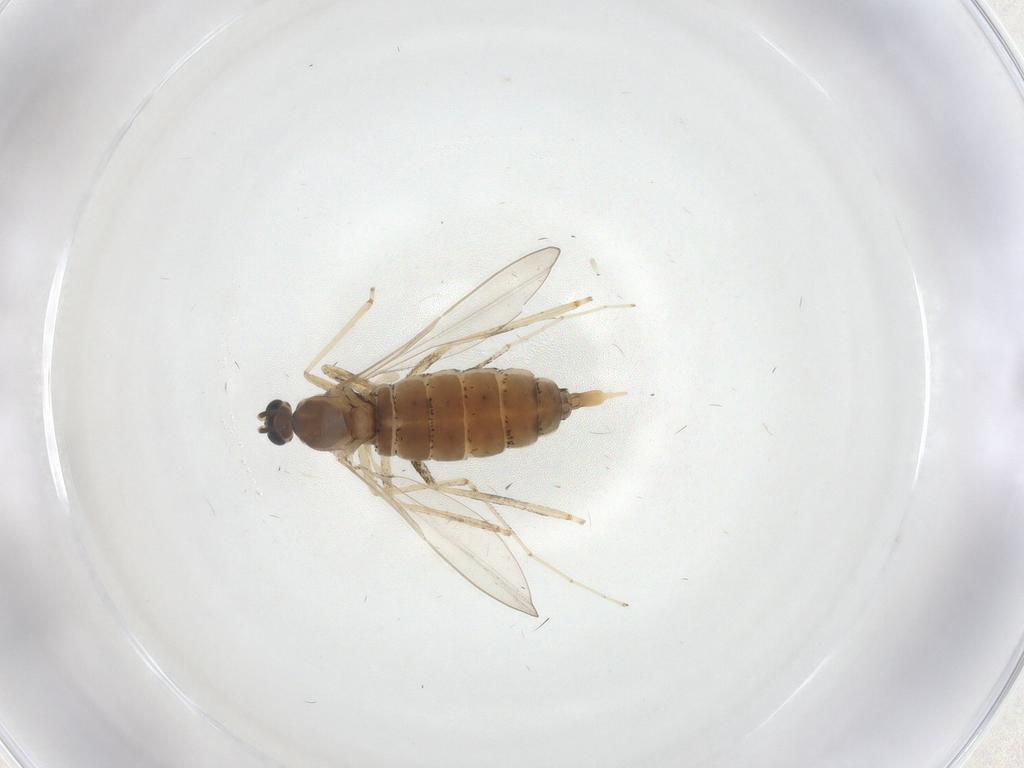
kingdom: Animalia
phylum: Arthropoda
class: Insecta
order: Diptera
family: Cecidomyiidae
